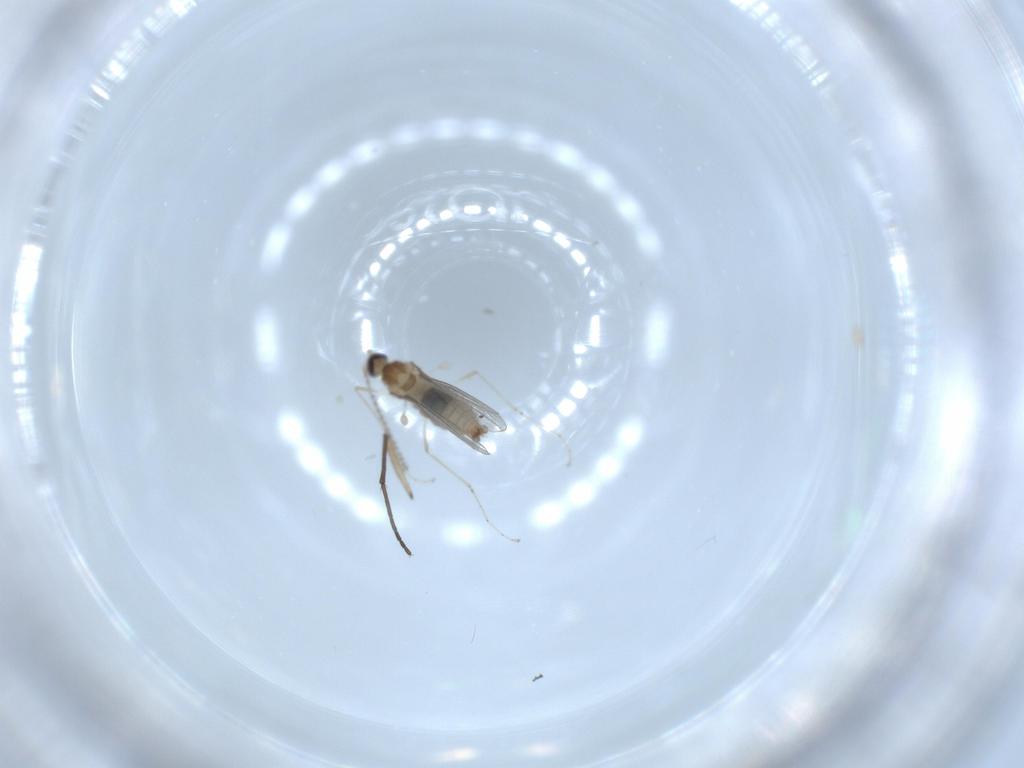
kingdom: Animalia
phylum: Arthropoda
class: Insecta
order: Diptera
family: Cecidomyiidae
